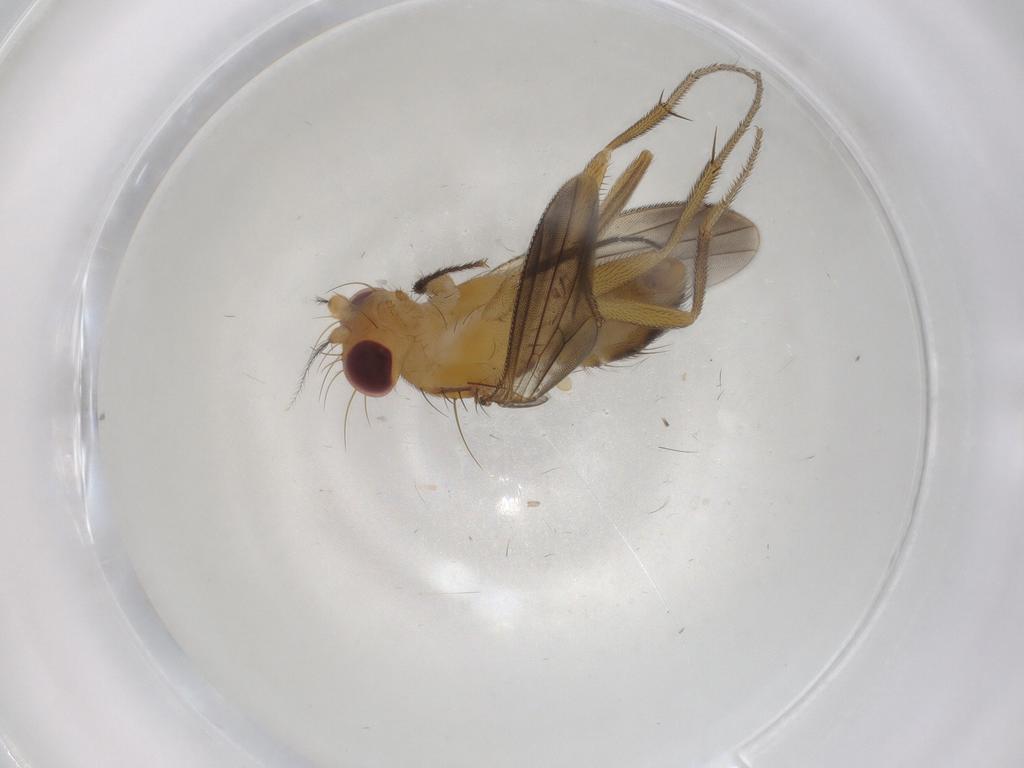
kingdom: Animalia
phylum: Arthropoda
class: Insecta
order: Diptera
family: Clusiidae
